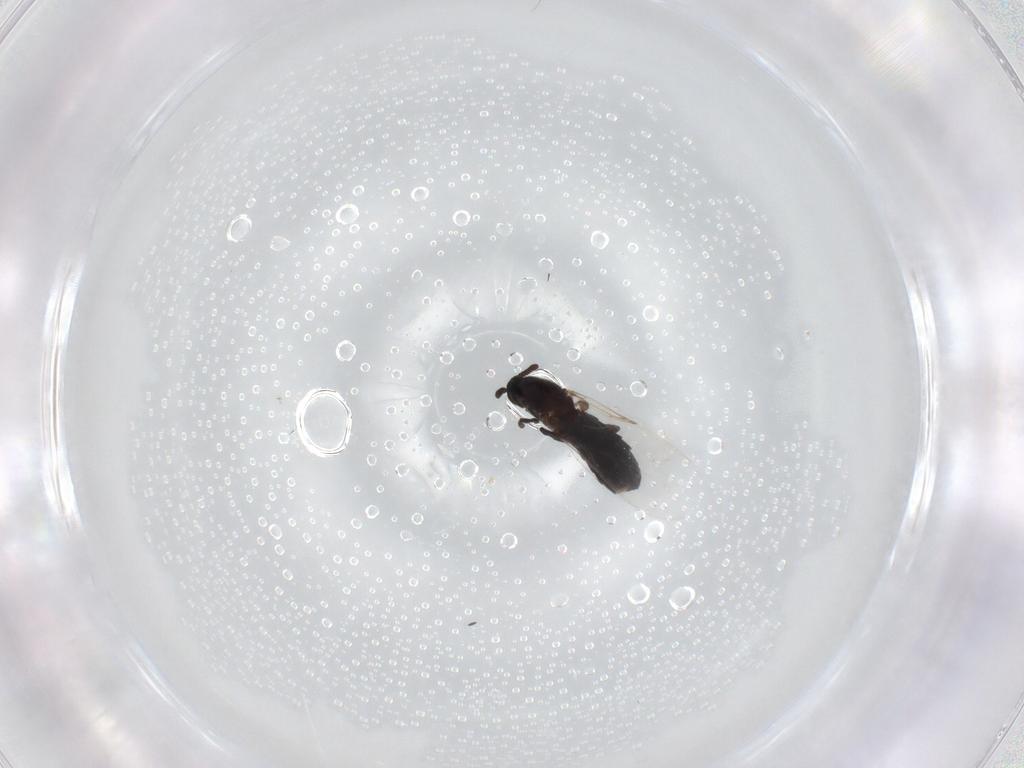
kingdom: Animalia
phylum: Arthropoda
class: Insecta
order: Diptera
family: Scatopsidae
